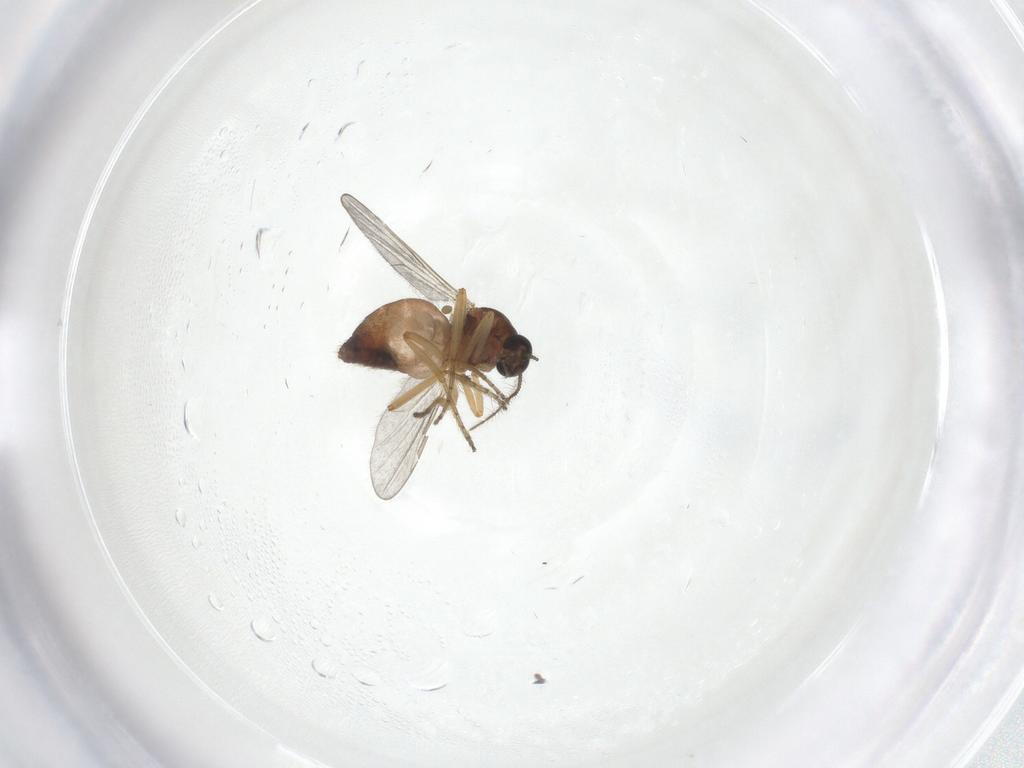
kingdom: Animalia
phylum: Arthropoda
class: Insecta
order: Diptera
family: Ceratopogonidae
